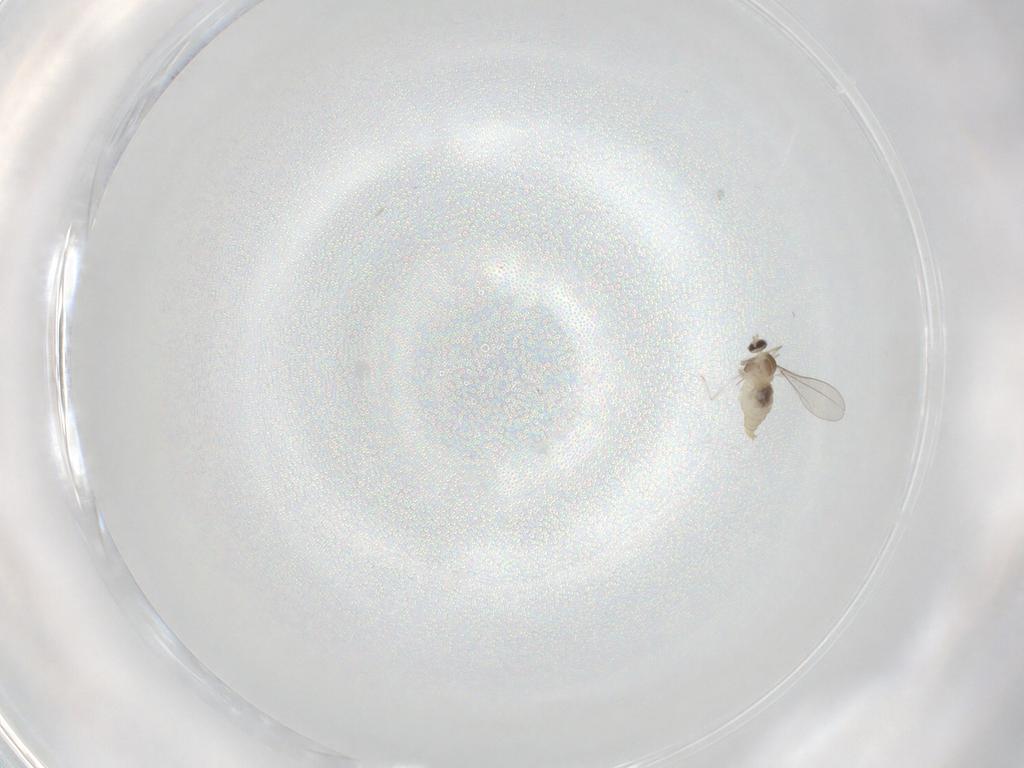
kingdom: Animalia
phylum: Arthropoda
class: Insecta
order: Diptera
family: Cecidomyiidae
